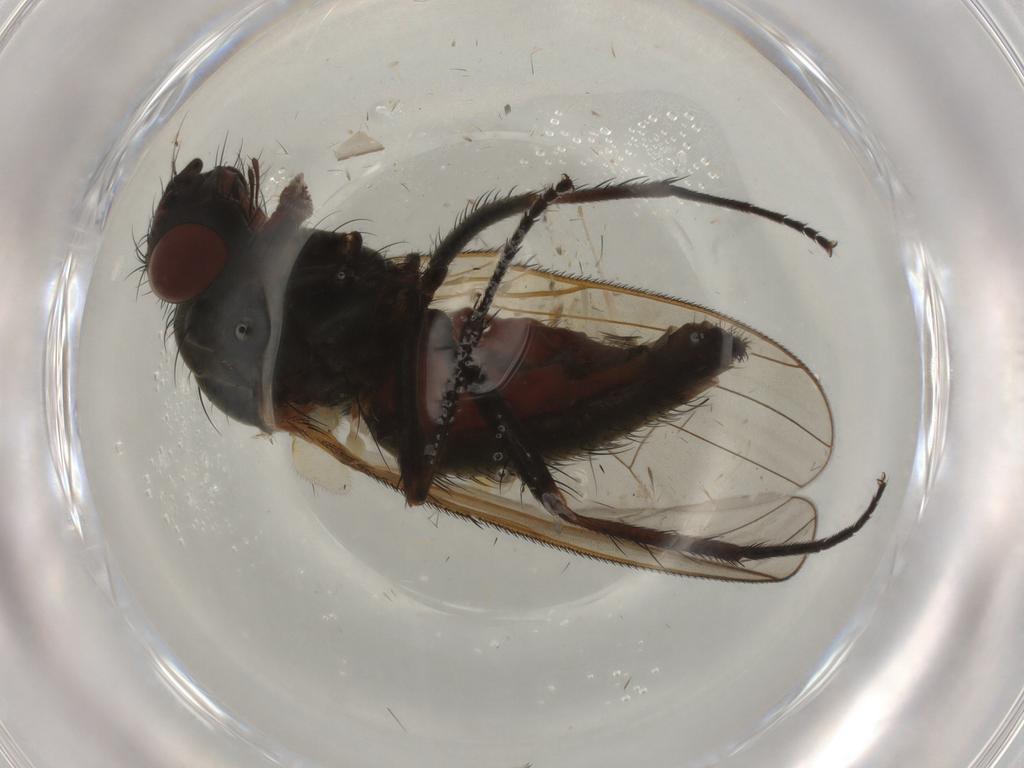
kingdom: Animalia
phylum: Arthropoda
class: Insecta
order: Diptera
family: Anthomyiidae
